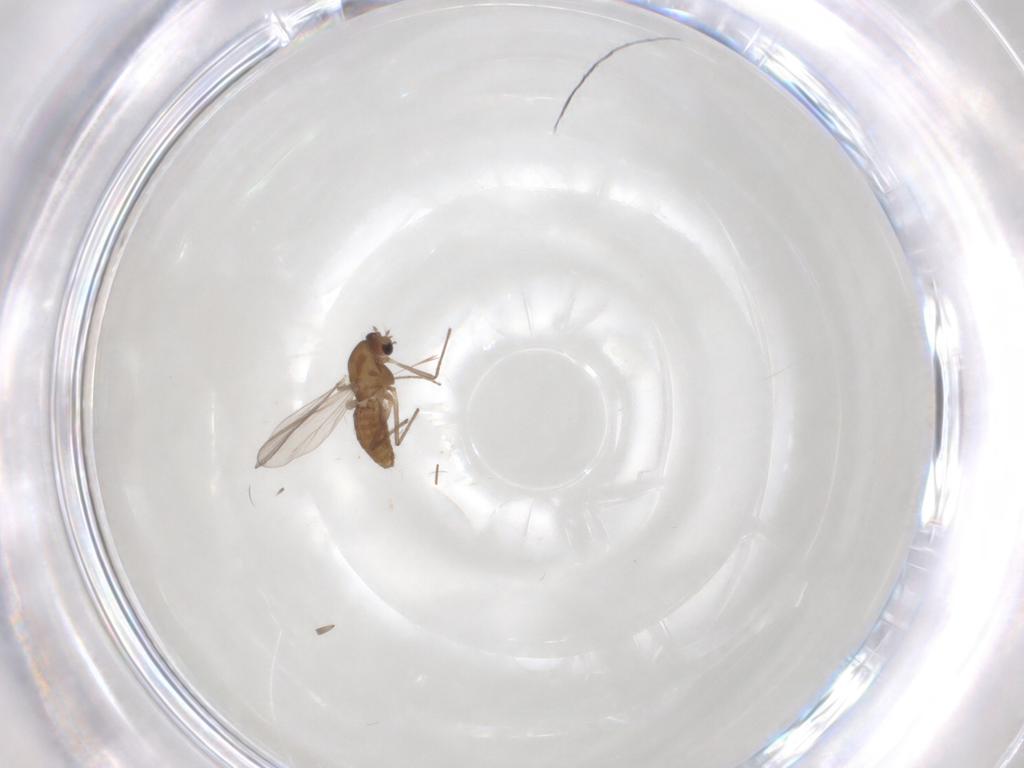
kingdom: Animalia
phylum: Arthropoda
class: Insecta
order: Diptera
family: Chironomidae
